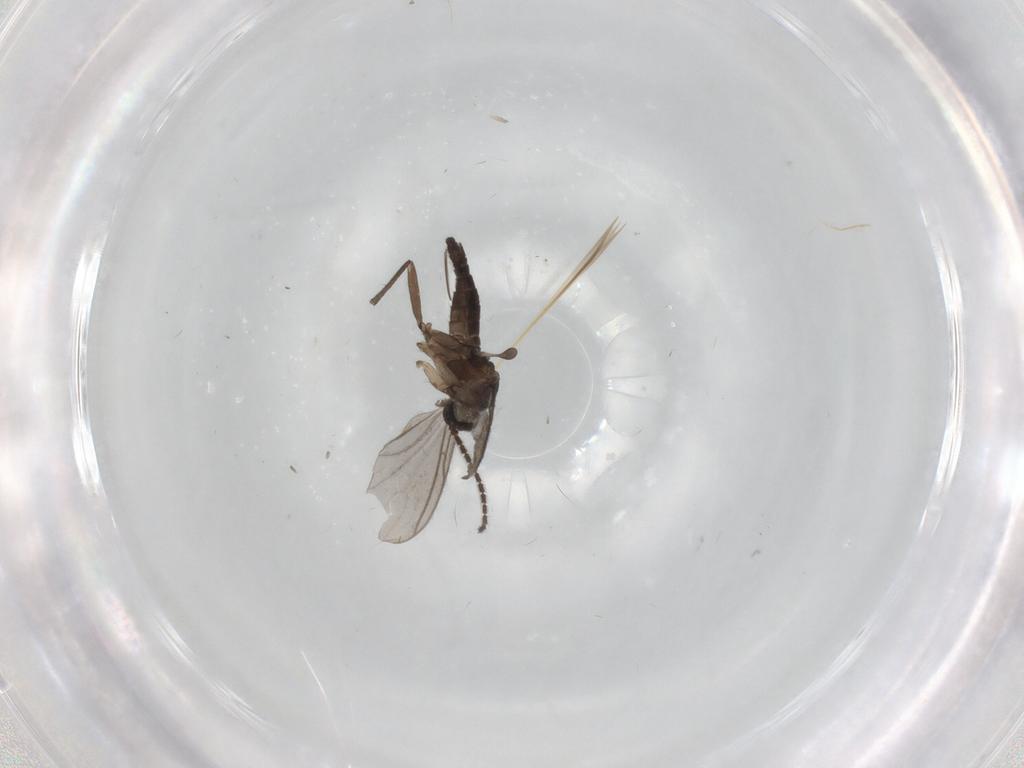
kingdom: Animalia
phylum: Arthropoda
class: Insecta
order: Diptera
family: Sciaridae
